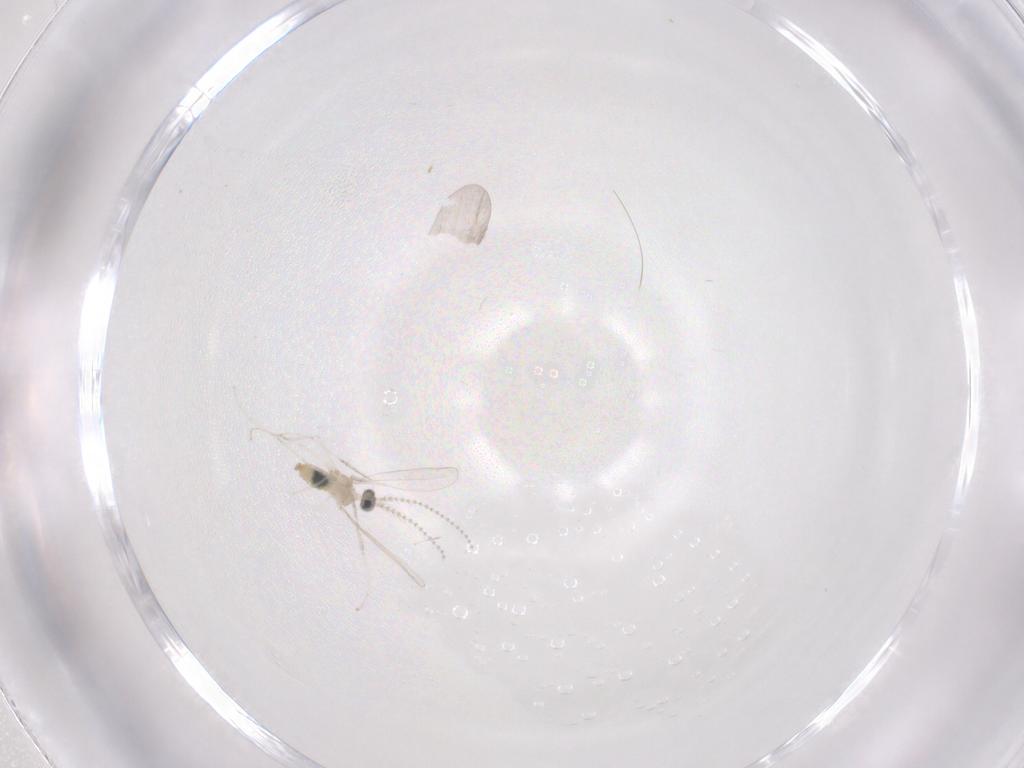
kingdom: Animalia
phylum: Arthropoda
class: Insecta
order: Diptera
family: Cecidomyiidae
